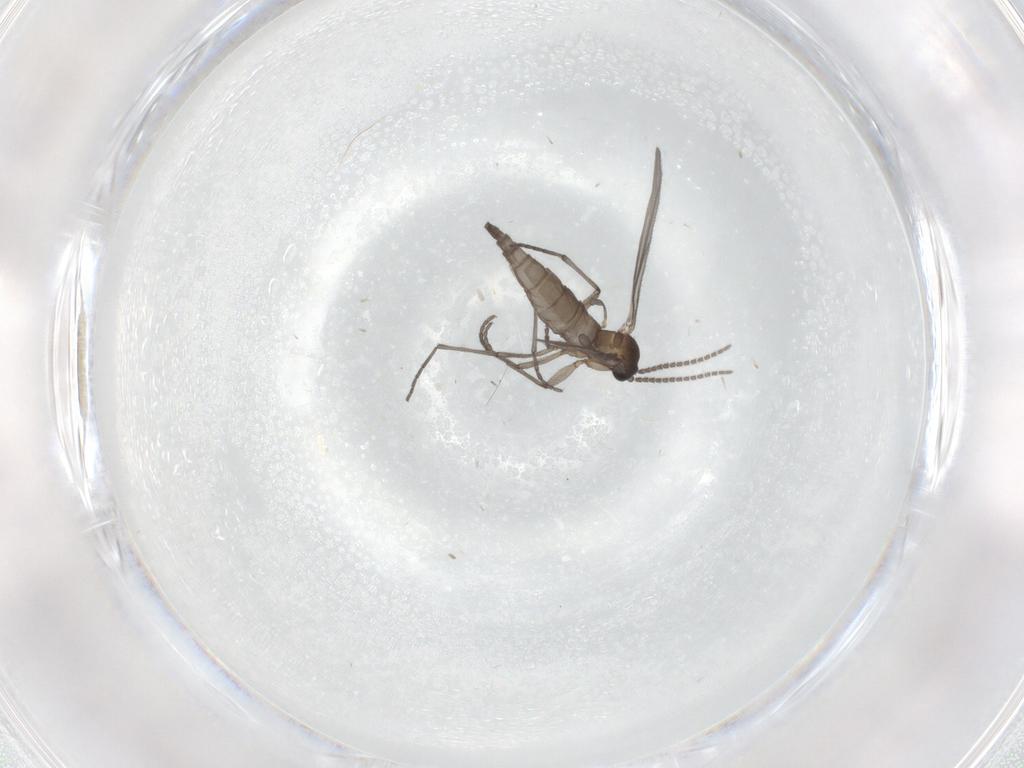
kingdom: Animalia
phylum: Arthropoda
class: Insecta
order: Diptera
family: Sciaridae
